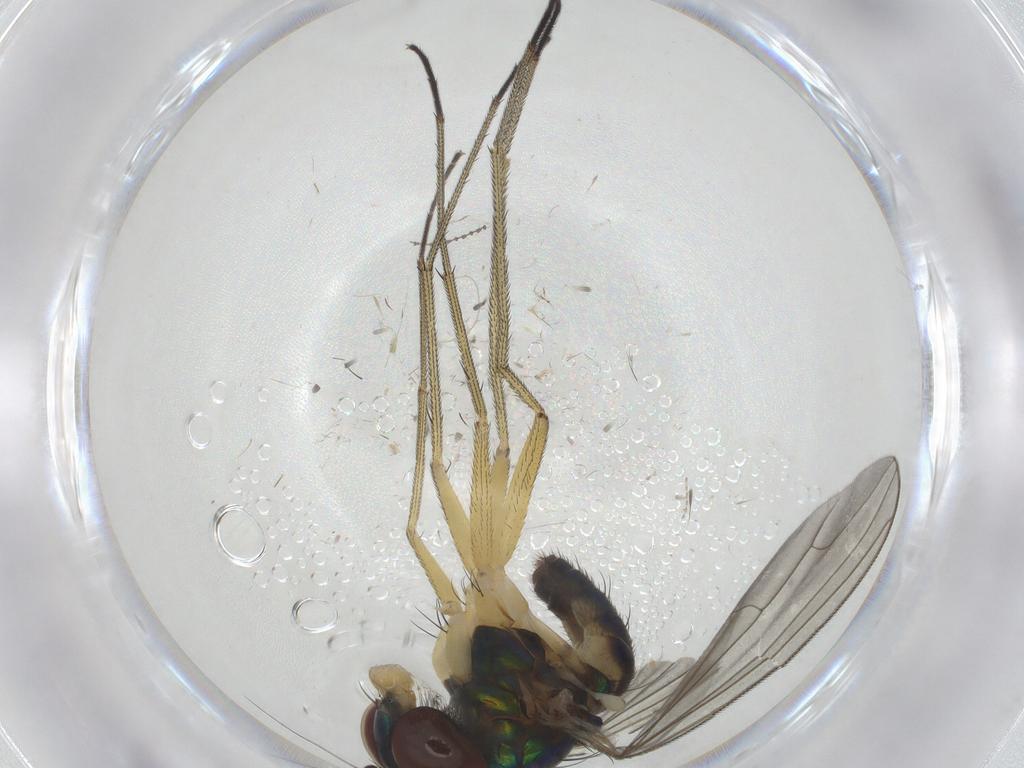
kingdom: Animalia
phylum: Arthropoda
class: Insecta
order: Diptera
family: Dolichopodidae
